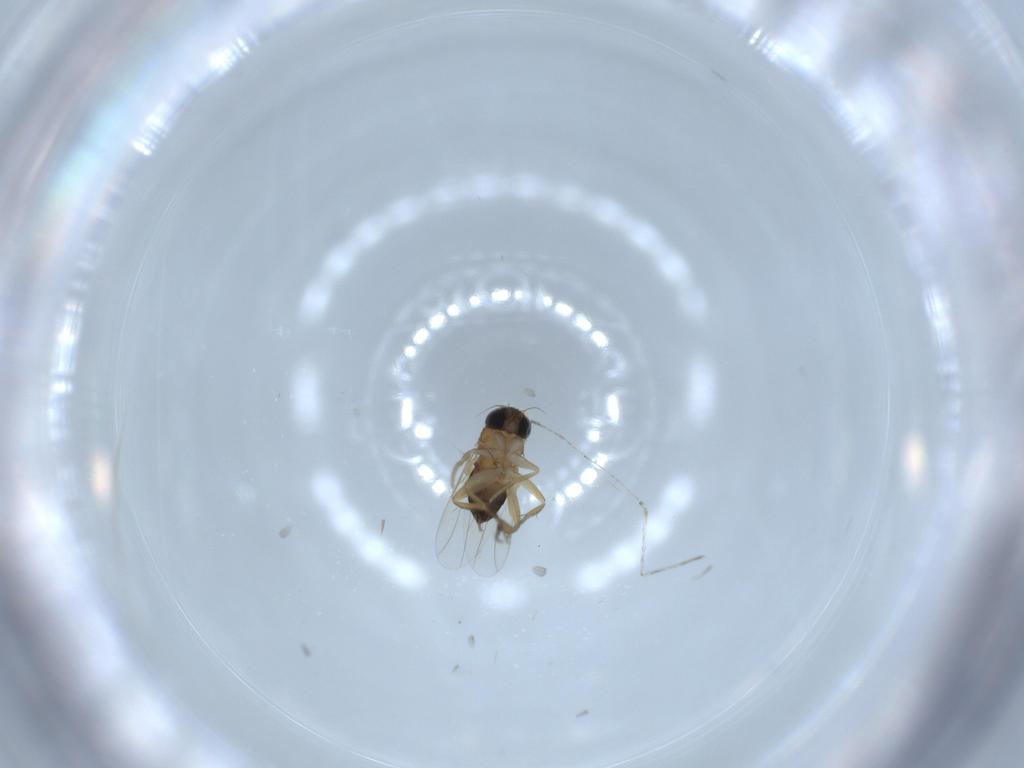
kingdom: Animalia
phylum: Arthropoda
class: Insecta
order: Diptera
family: Phoridae
